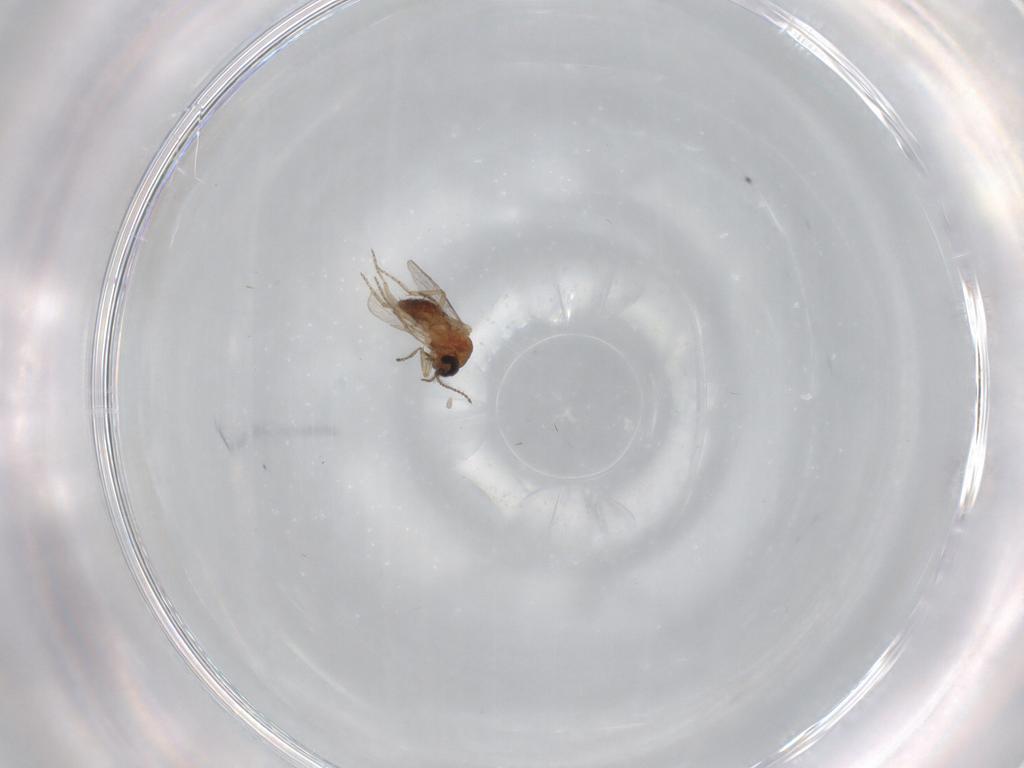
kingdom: Animalia
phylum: Arthropoda
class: Insecta
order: Diptera
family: Ceratopogonidae
